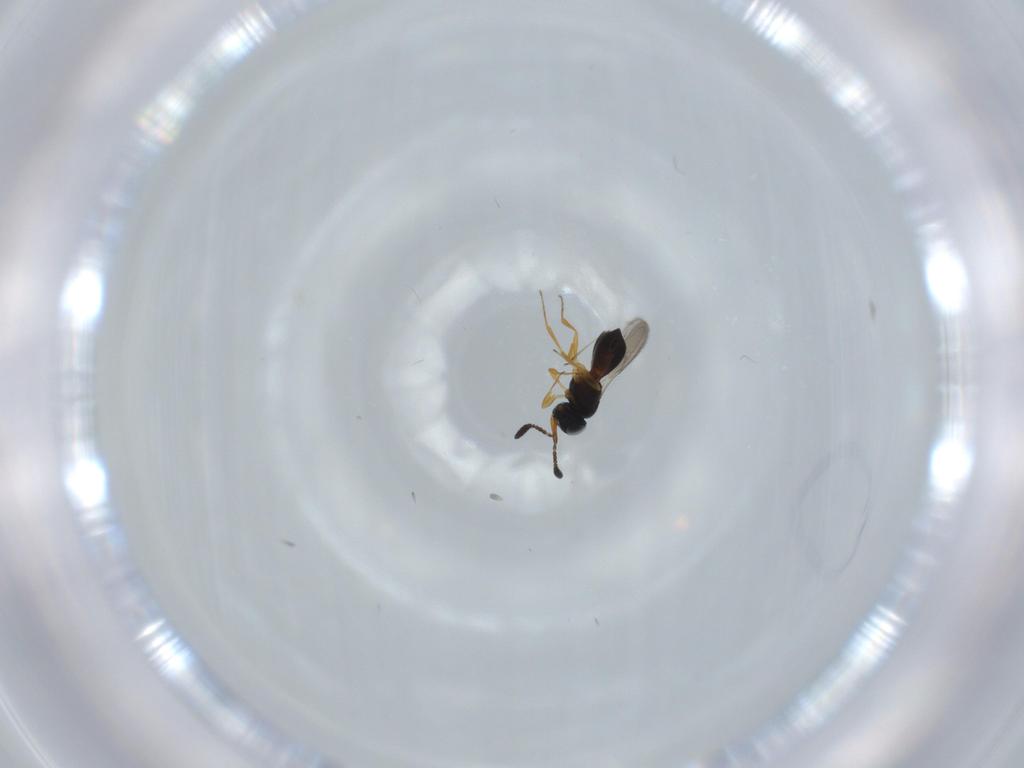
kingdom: Animalia
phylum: Arthropoda
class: Insecta
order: Hymenoptera
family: Scelionidae
